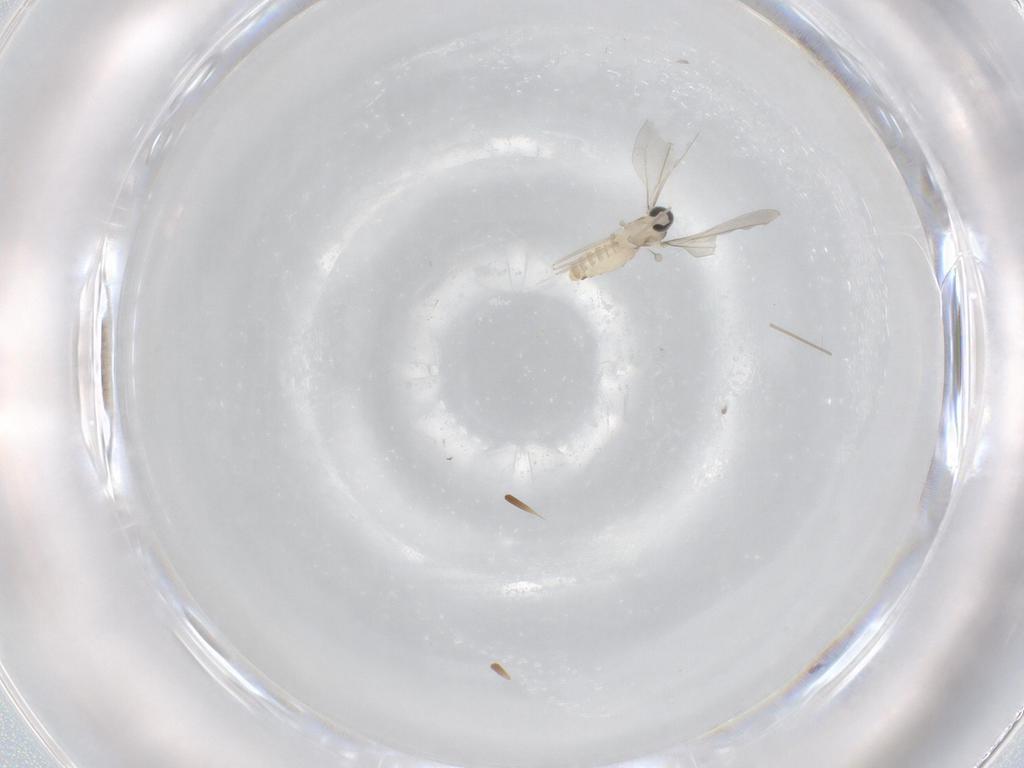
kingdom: Animalia
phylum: Arthropoda
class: Insecta
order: Diptera
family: Cecidomyiidae
